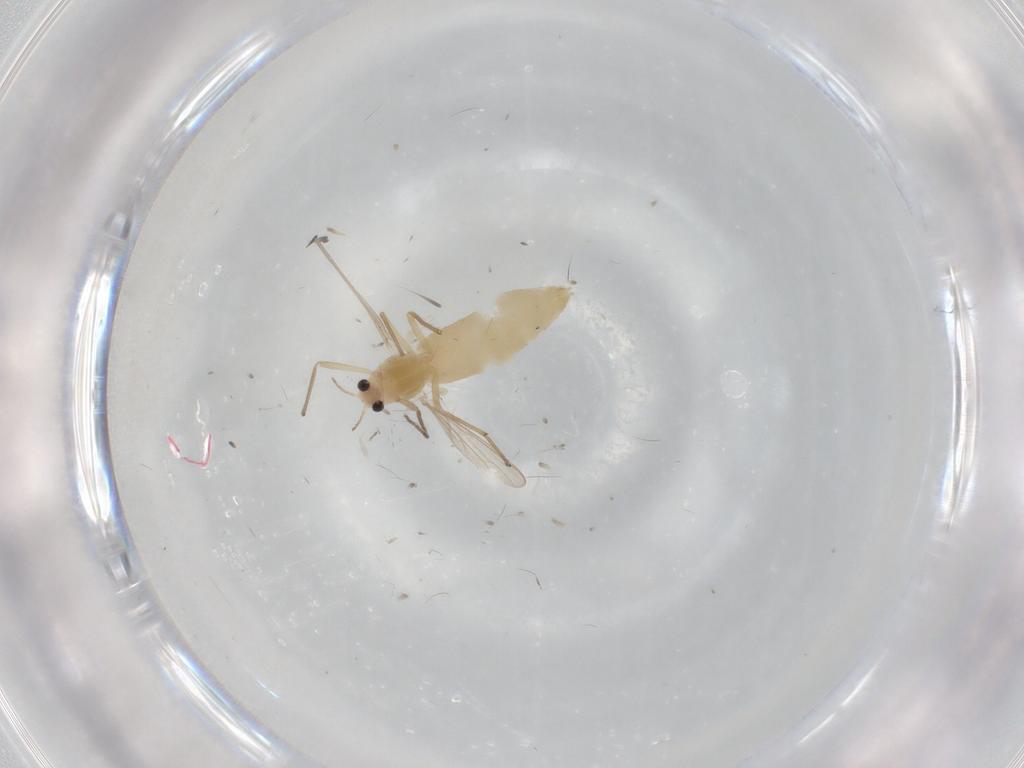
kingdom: Animalia
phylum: Arthropoda
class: Insecta
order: Diptera
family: Chironomidae
